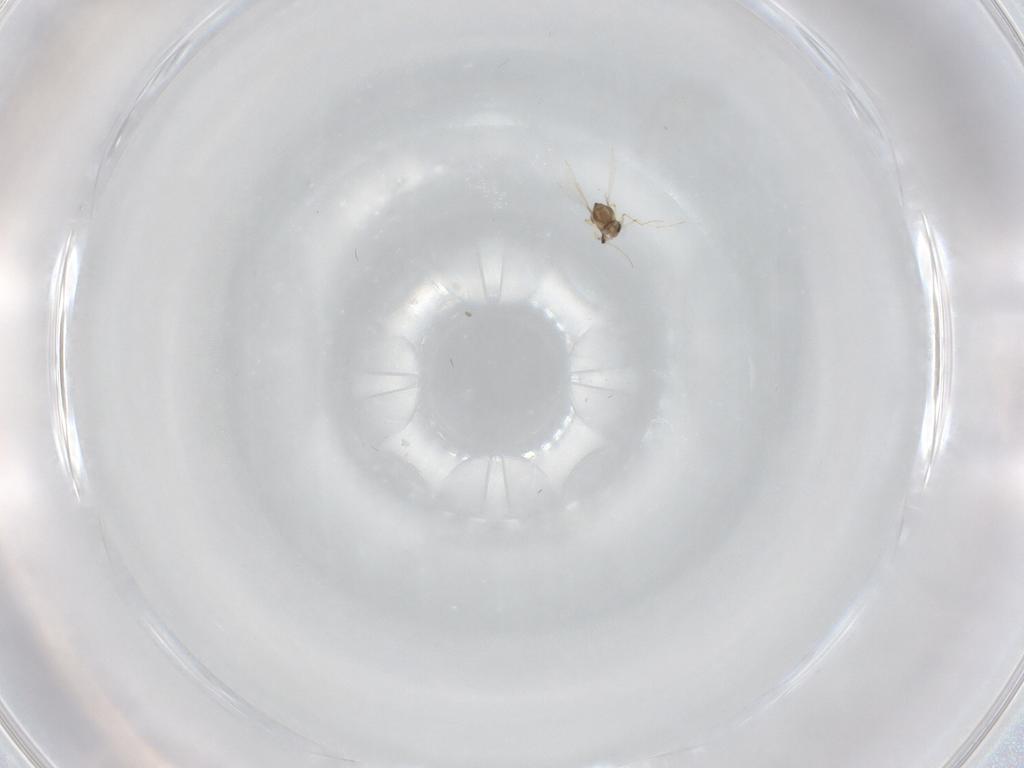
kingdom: Animalia
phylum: Arthropoda
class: Insecta
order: Diptera
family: Chironomidae
